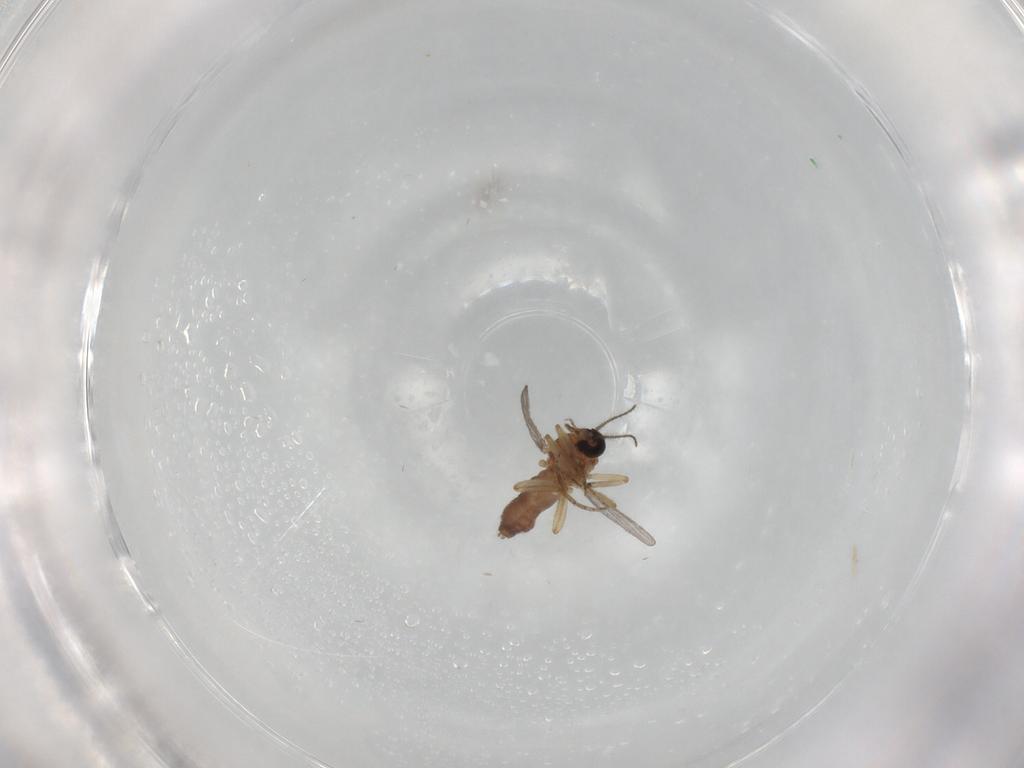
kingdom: Animalia
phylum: Arthropoda
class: Insecta
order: Diptera
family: Ceratopogonidae
